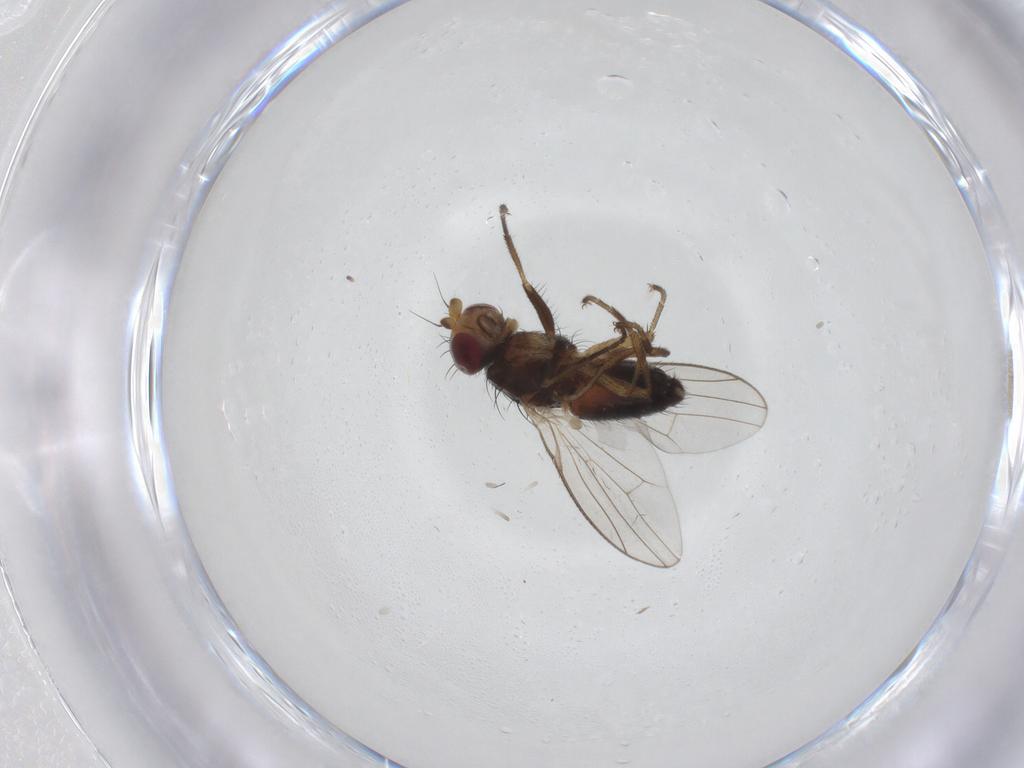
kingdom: Animalia
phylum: Arthropoda
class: Insecta
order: Diptera
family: Heleomyzidae
